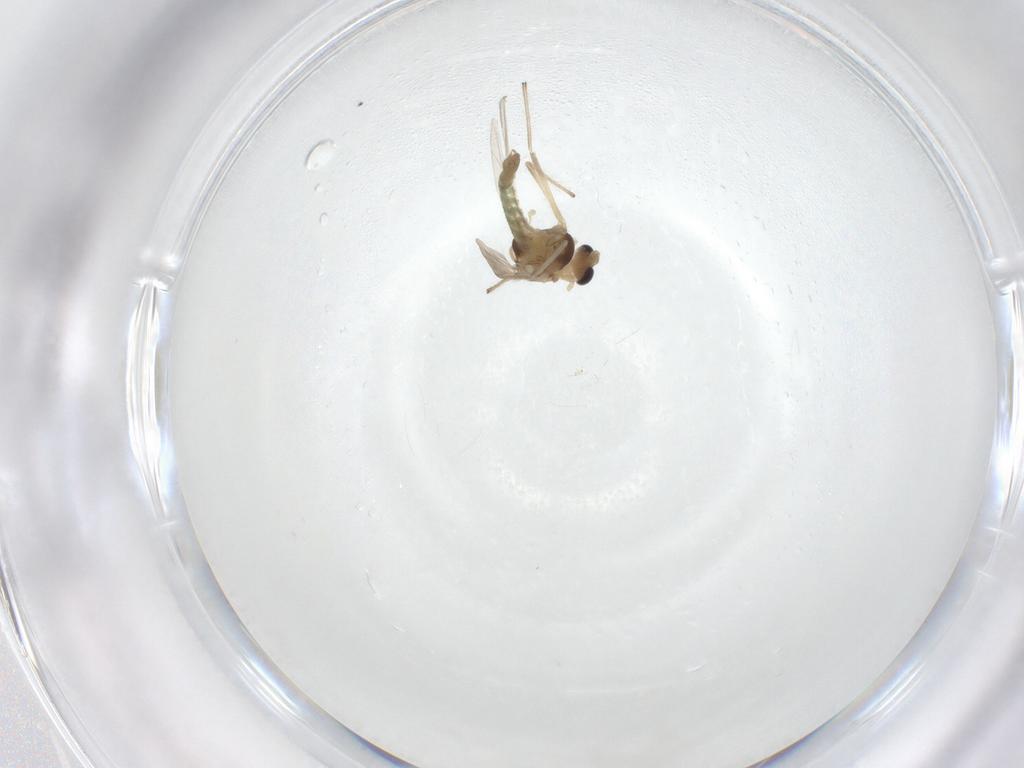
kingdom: Animalia
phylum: Arthropoda
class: Insecta
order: Diptera
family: Chironomidae
